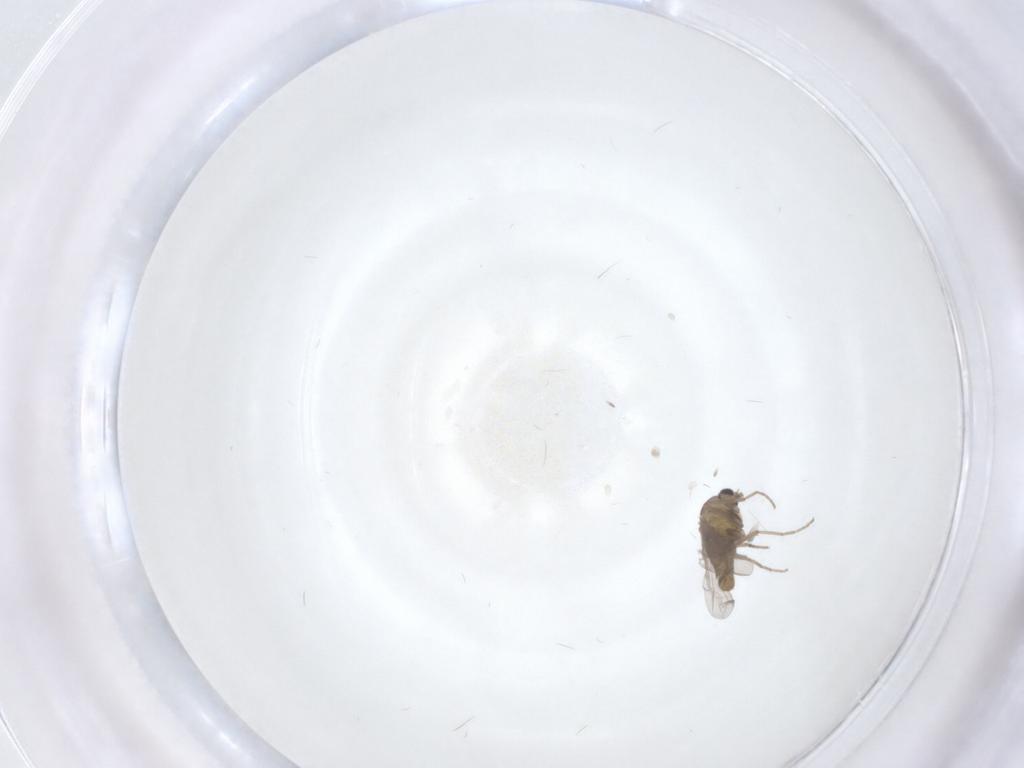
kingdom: Animalia
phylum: Arthropoda
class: Insecta
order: Diptera
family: Chironomidae
